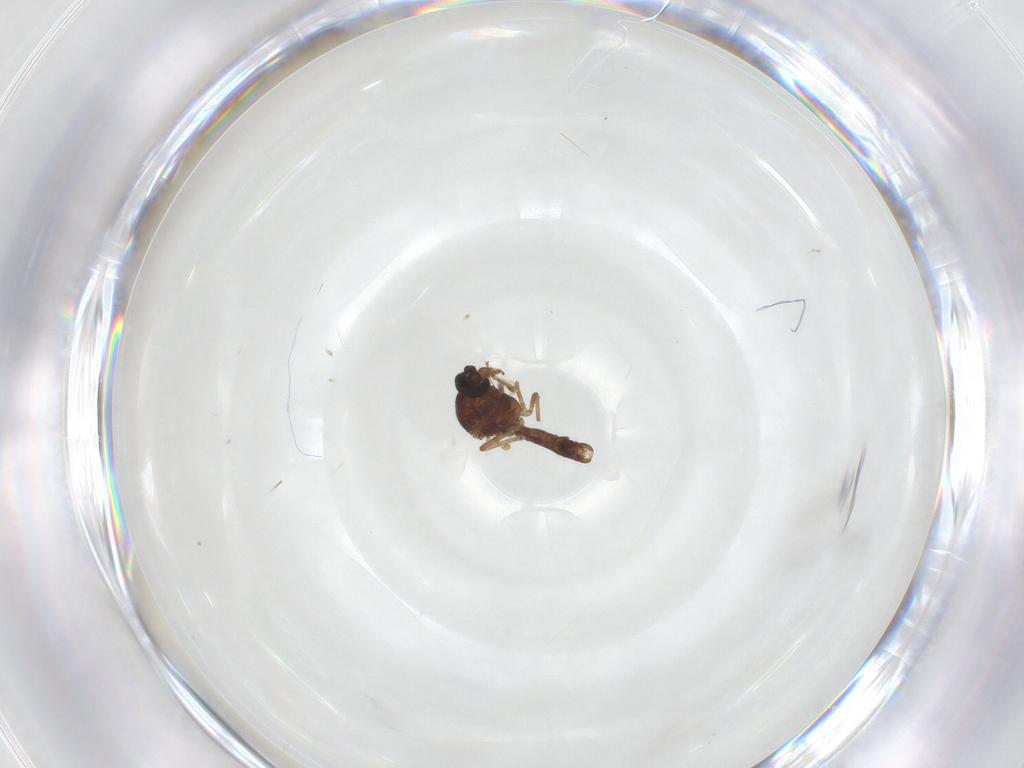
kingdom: Animalia
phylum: Arthropoda
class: Insecta
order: Diptera
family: Ceratopogonidae
